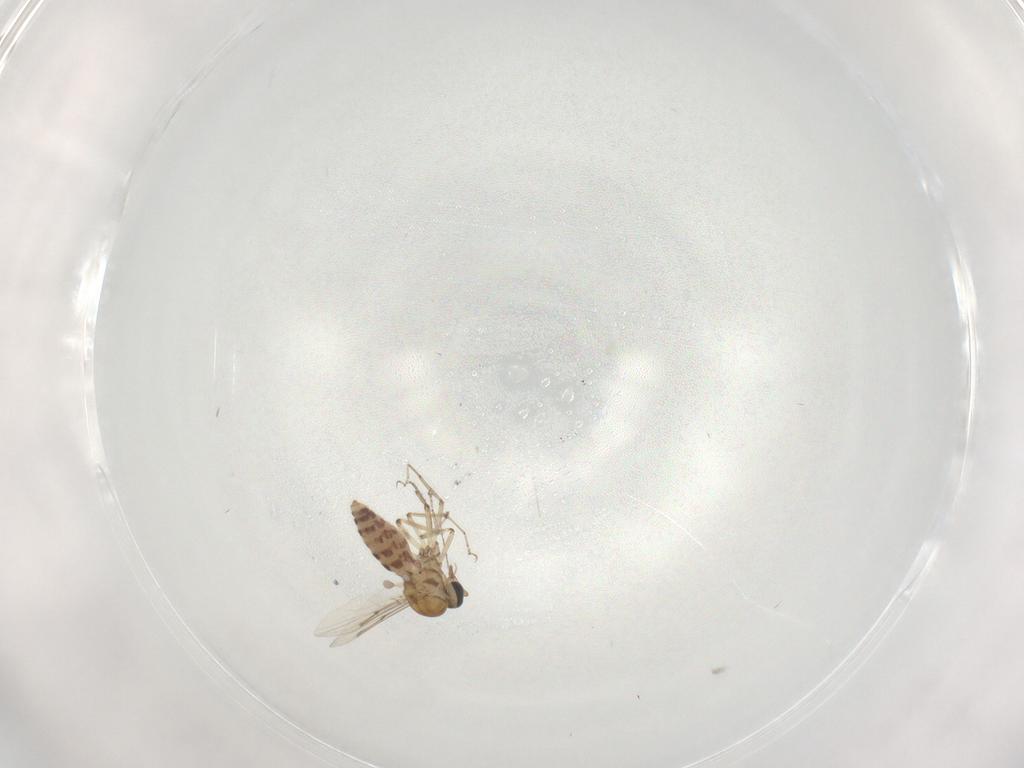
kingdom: Animalia
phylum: Arthropoda
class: Insecta
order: Diptera
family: Ceratopogonidae
